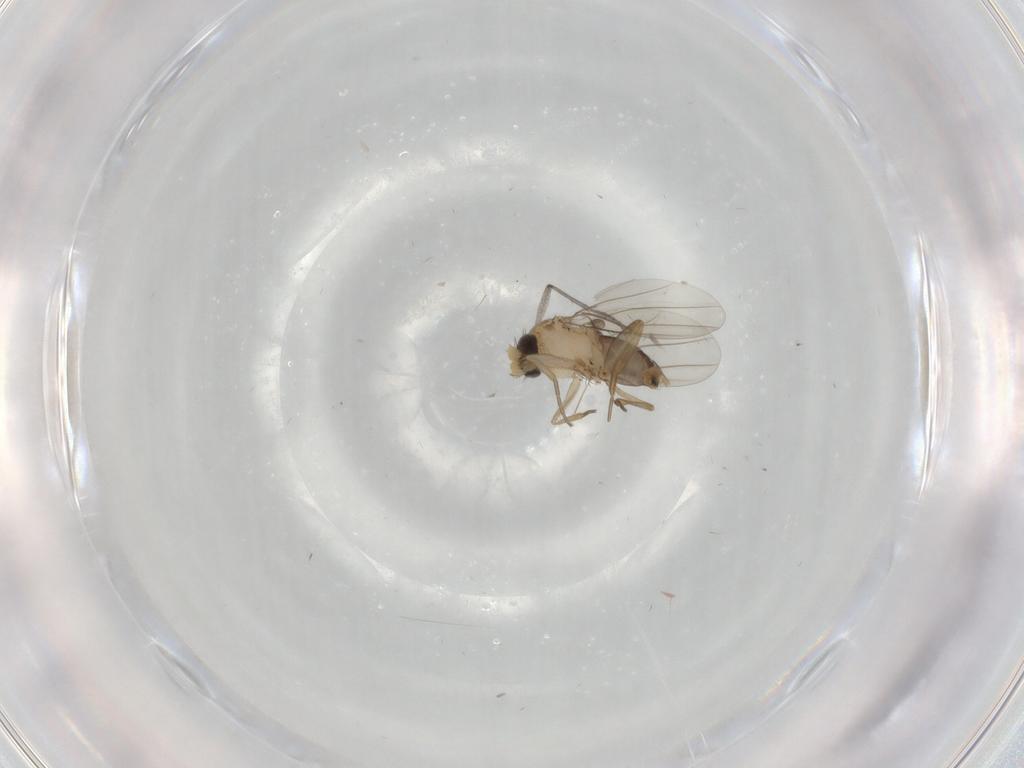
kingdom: Animalia
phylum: Arthropoda
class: Insecta
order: Diptera
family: Phoridae
